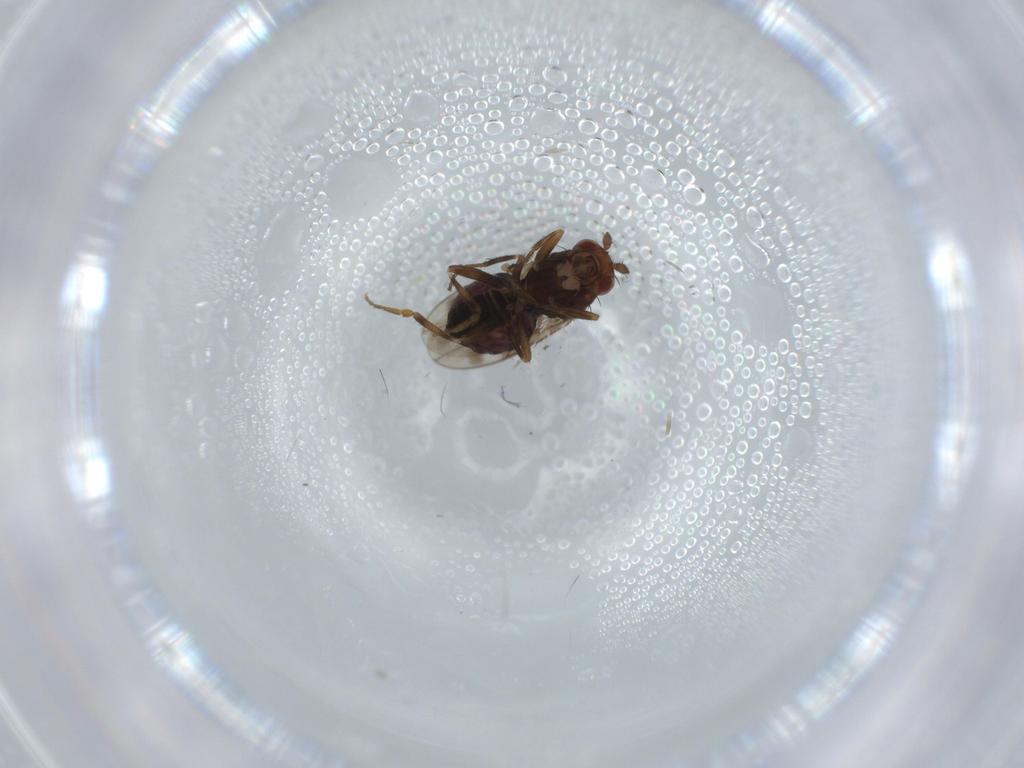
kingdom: Animalia
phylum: Arthropoda
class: Insecta
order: Diptera
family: Sphaeroceridae
